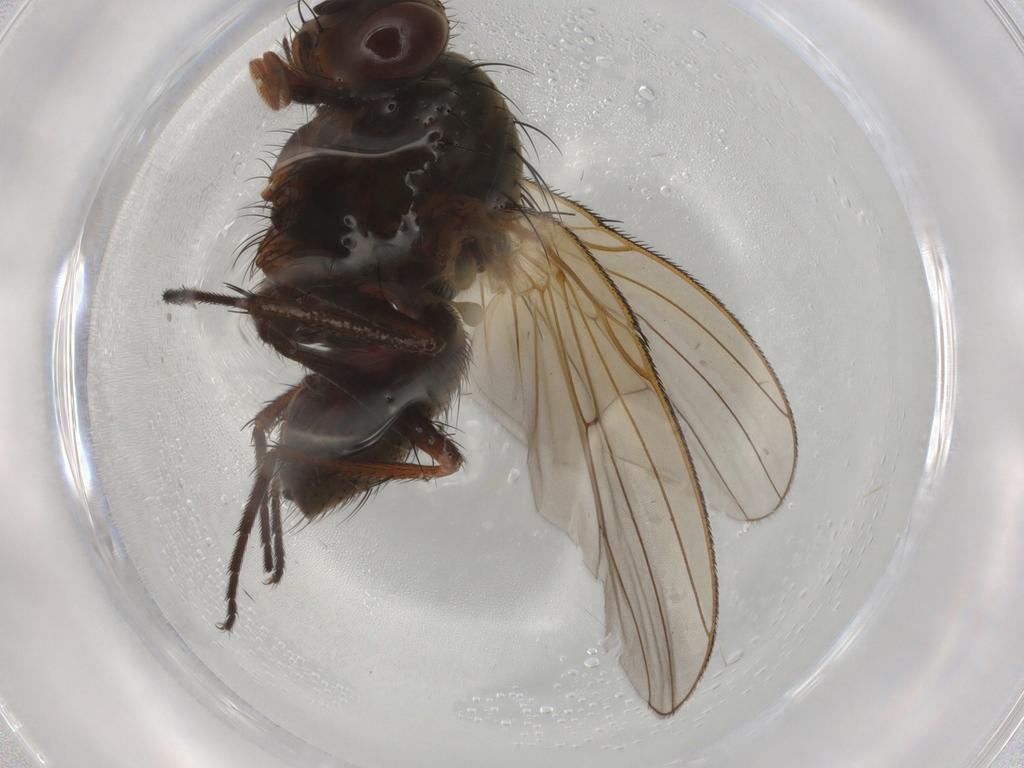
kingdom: Animalia
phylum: Arthropoda
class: Insecta
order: Diptera
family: Anthomyiidae
